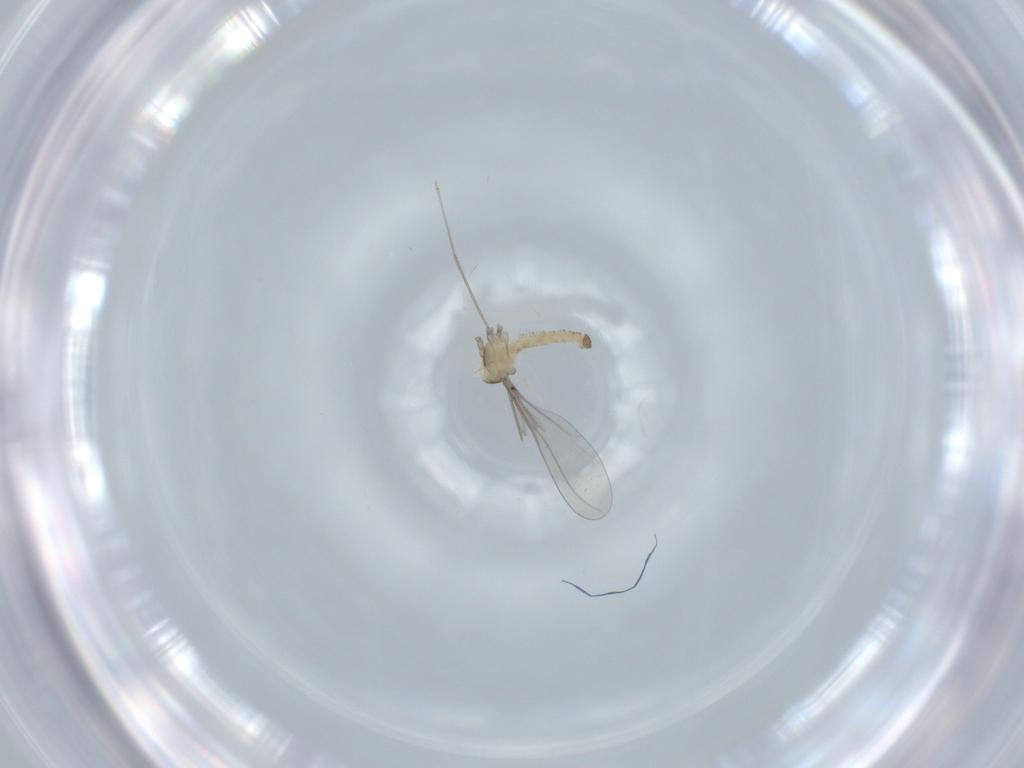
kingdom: Animalia
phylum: Arthropoda
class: Insecta
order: Diptera
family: Cecidomyiidae
